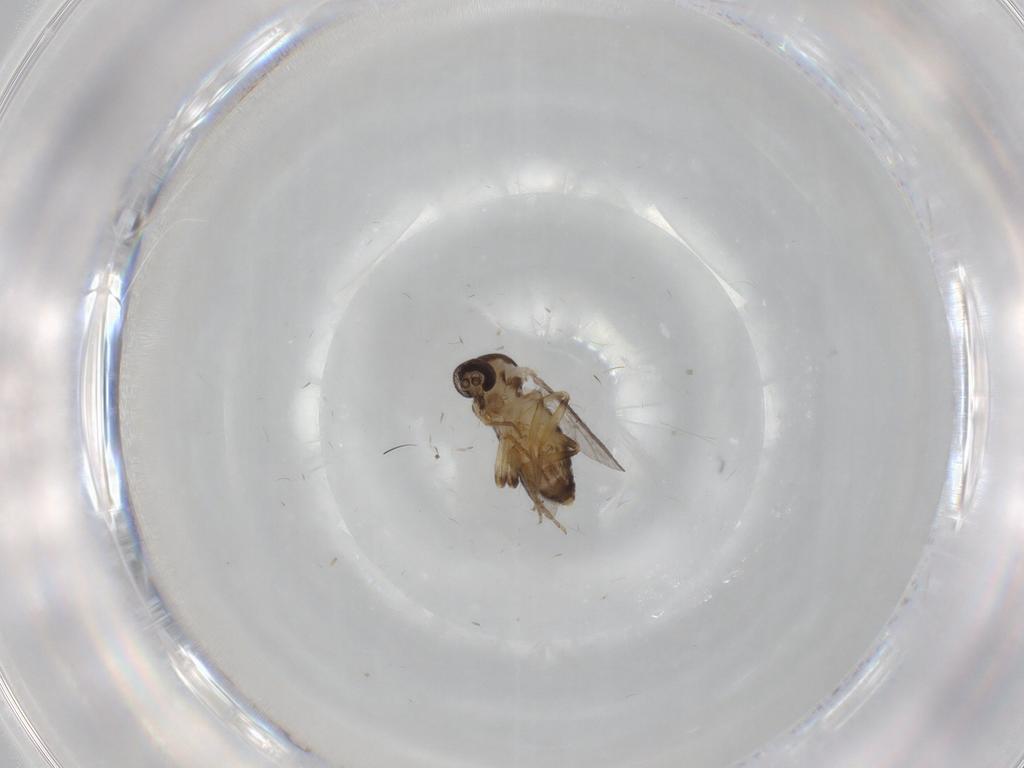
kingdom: Animalia
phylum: Arthropoda
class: Insecta
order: Diptera
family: Ceratopogonidae
